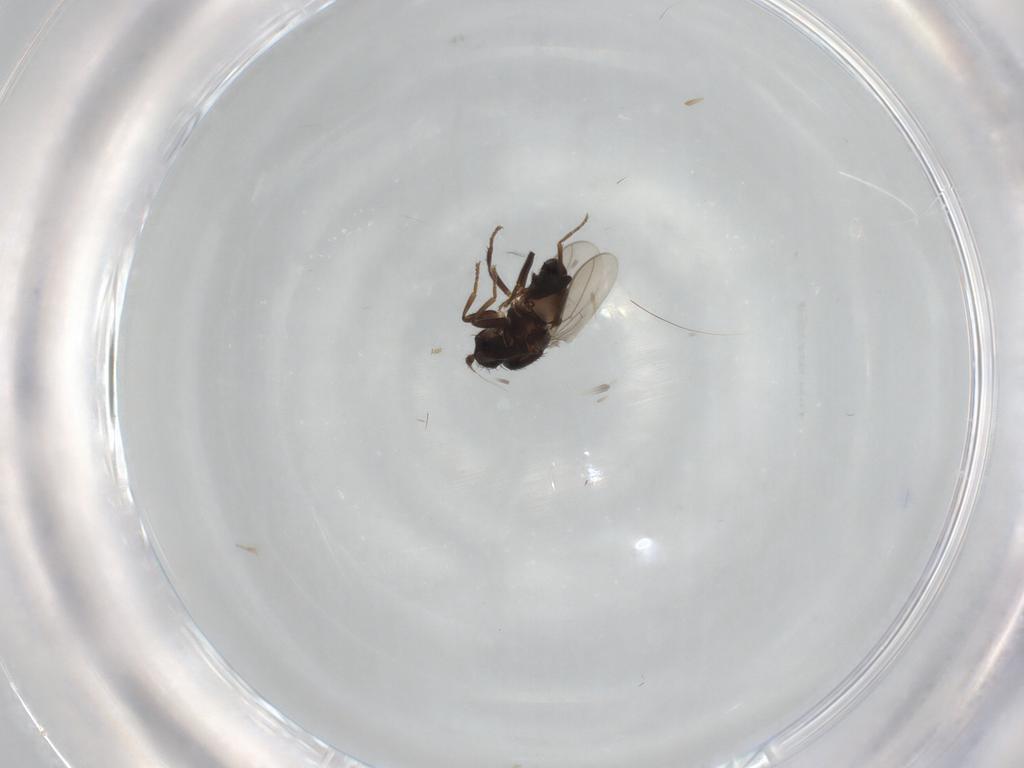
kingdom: Animalia
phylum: Arthropoda
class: Insecta
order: Diptera
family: Sphaeroceridae
